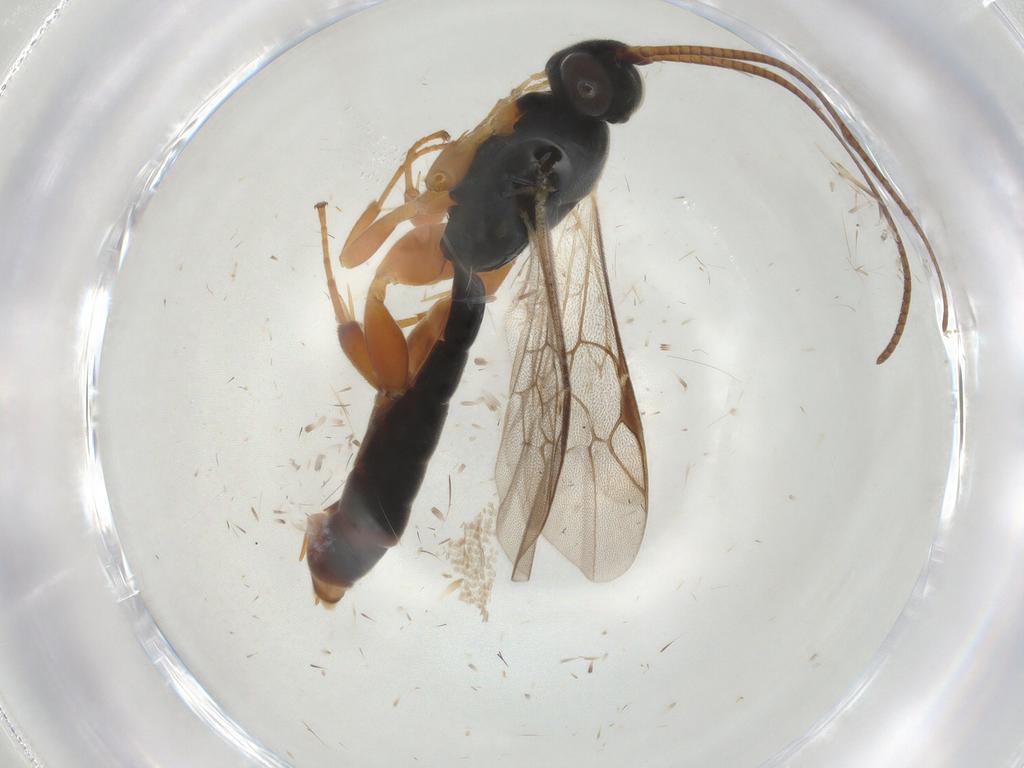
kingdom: Animalia
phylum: Arthropoda
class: Insecta
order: Hymenoptera
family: Ichneumonidae
